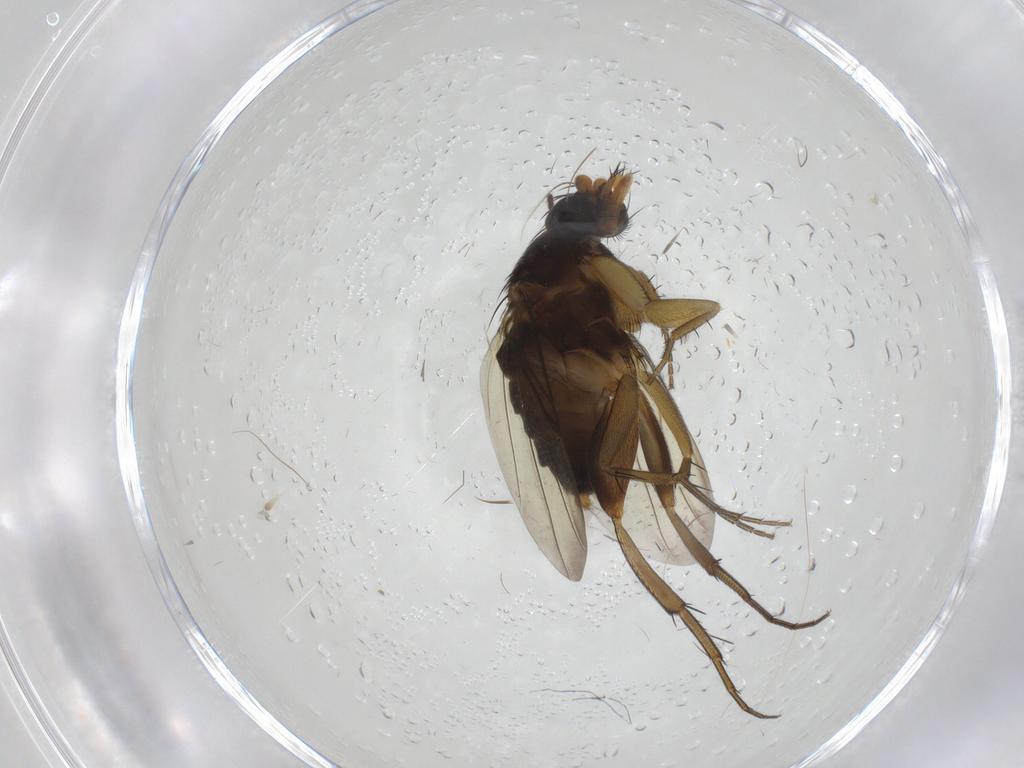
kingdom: Animalia
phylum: Arthropoda
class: Insecta
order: Diptera
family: Phoridae
